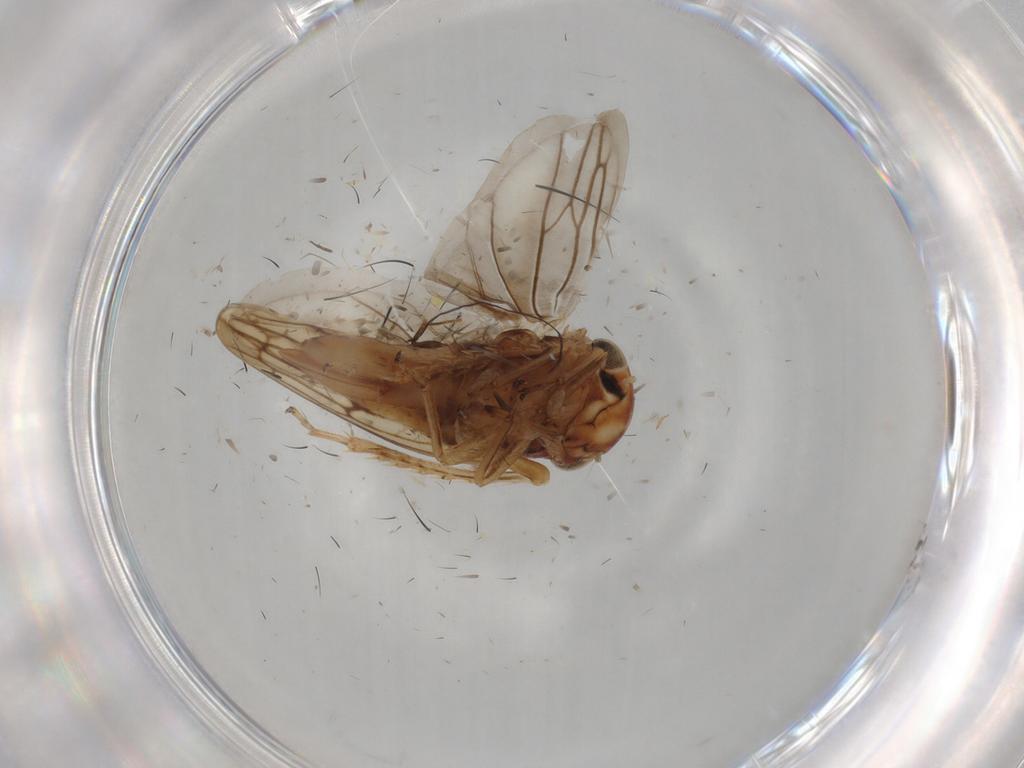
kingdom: Animalia
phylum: Arthropoda
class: Insecta
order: Hemiptera
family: Cicadellidae
